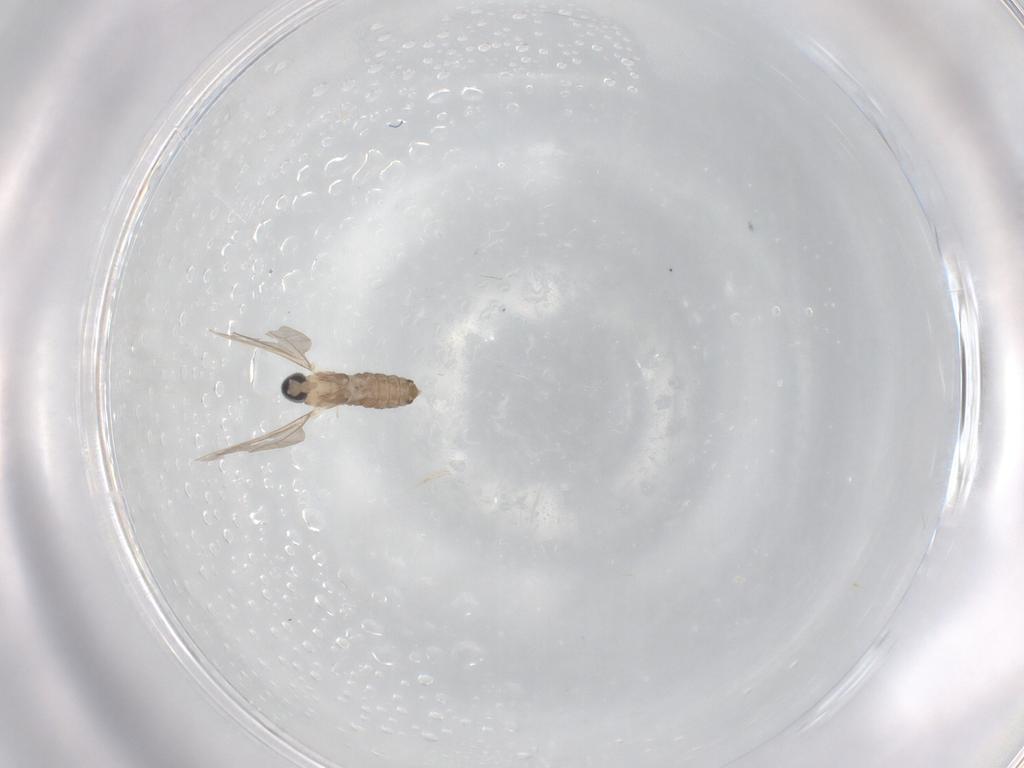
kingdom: Animalia
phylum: Arthropoda
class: Insecta
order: Diptera
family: Cecidomyiidae
